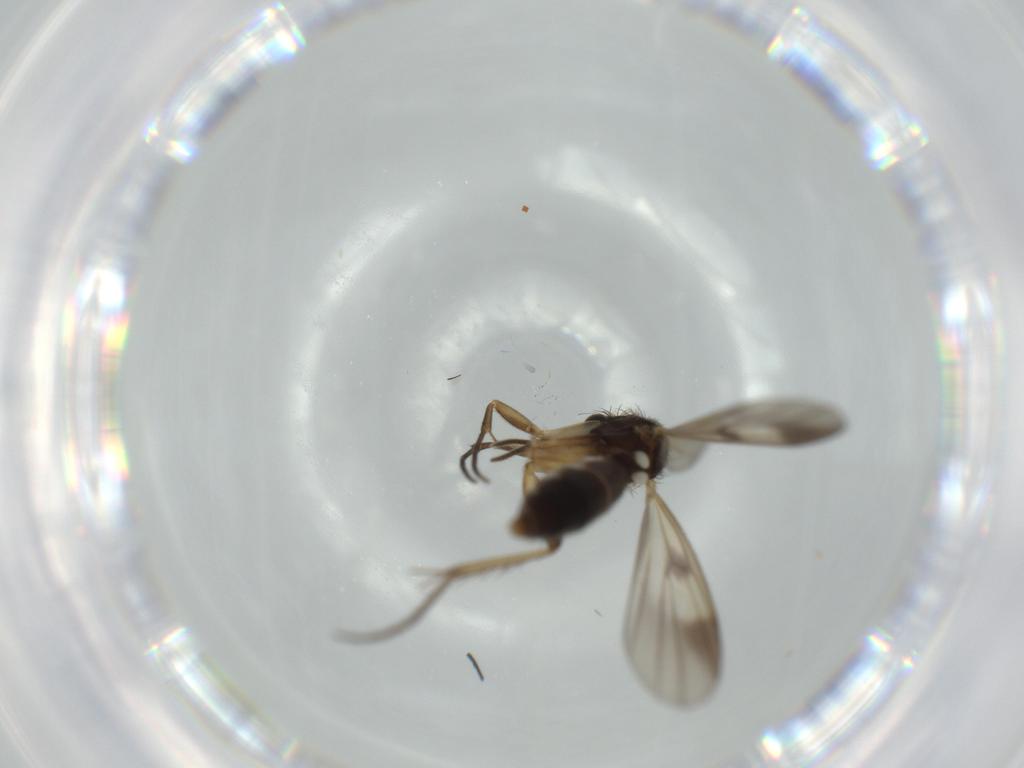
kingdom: Animalia
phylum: Arthropoda
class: Insecta
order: Diptera
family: Mycetophilidae
